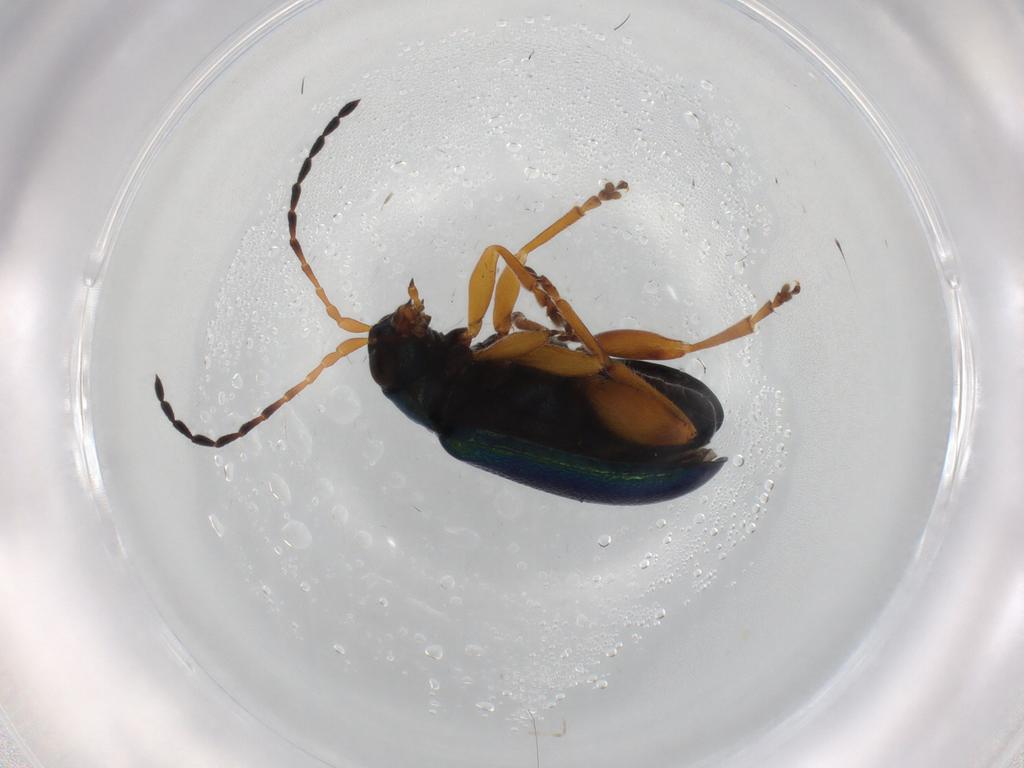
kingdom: Animalia
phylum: Arthropoda
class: Insecta
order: Coleoptera
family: Chrysomelidae
